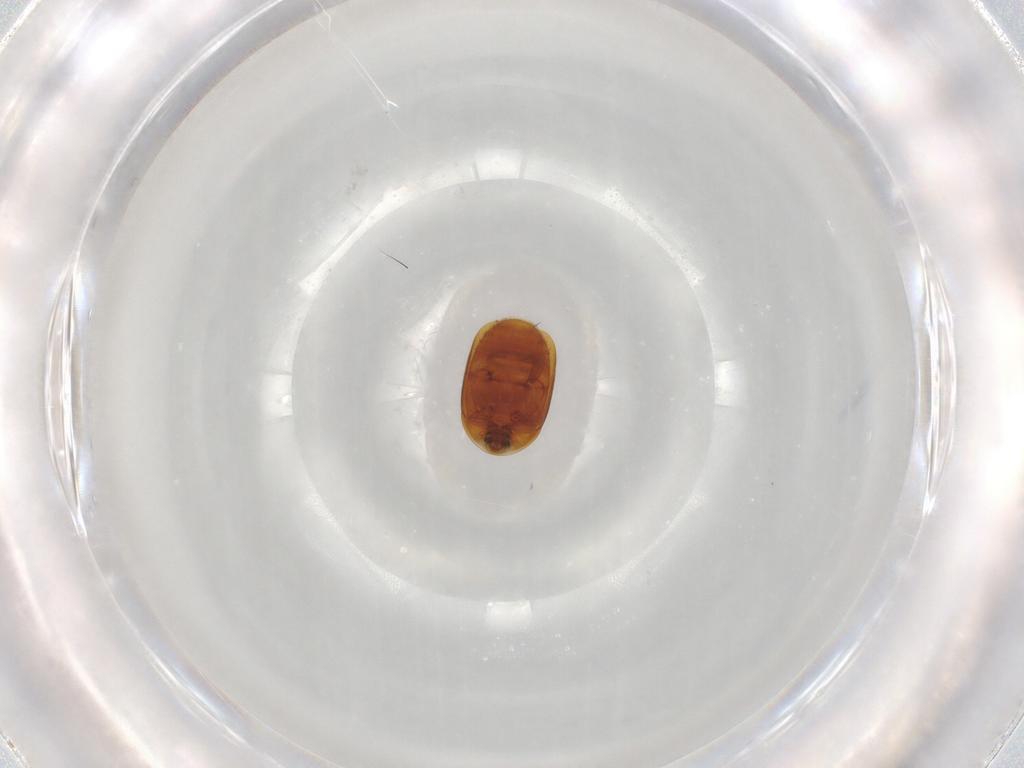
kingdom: Animalia
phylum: Arthropoda
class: Insecta
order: Coleoptera
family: Corylophidae
